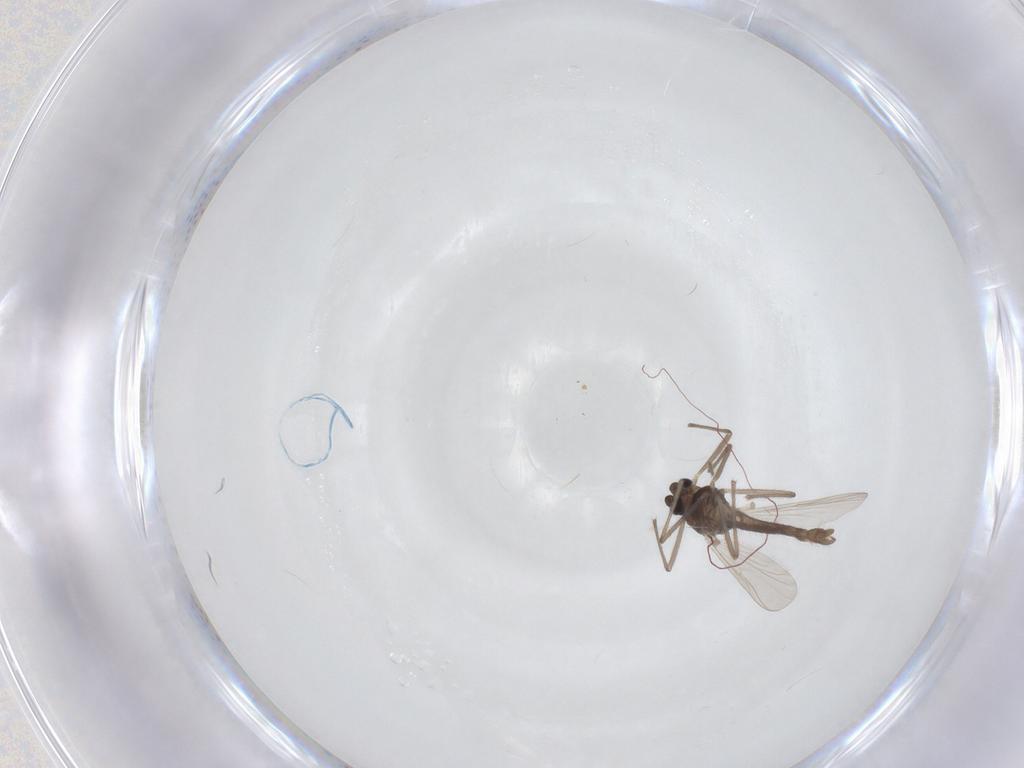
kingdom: Animalia
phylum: Arthropoda
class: Insecta
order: Diptera
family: Chironomidae
